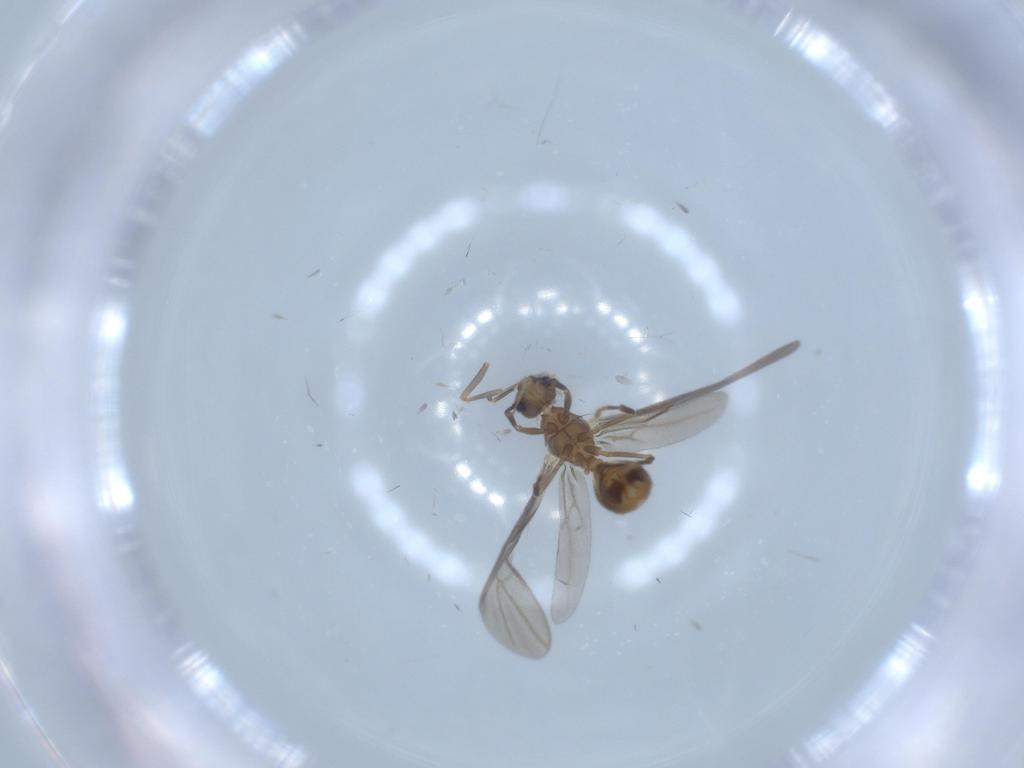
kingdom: Animalia
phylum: Arthropoda
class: Insecta
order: Hymenoptera
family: Formicidae
